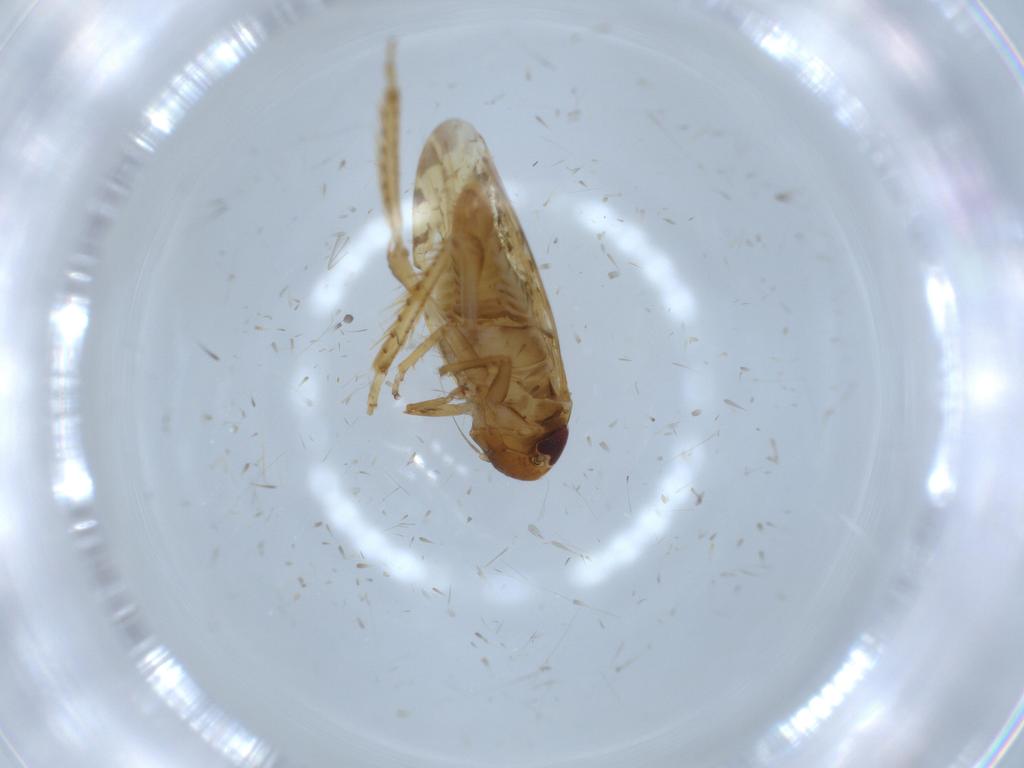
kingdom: Animalia
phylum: Arthropoda
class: Insecta
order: Hemiptera
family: Cicadellidae
